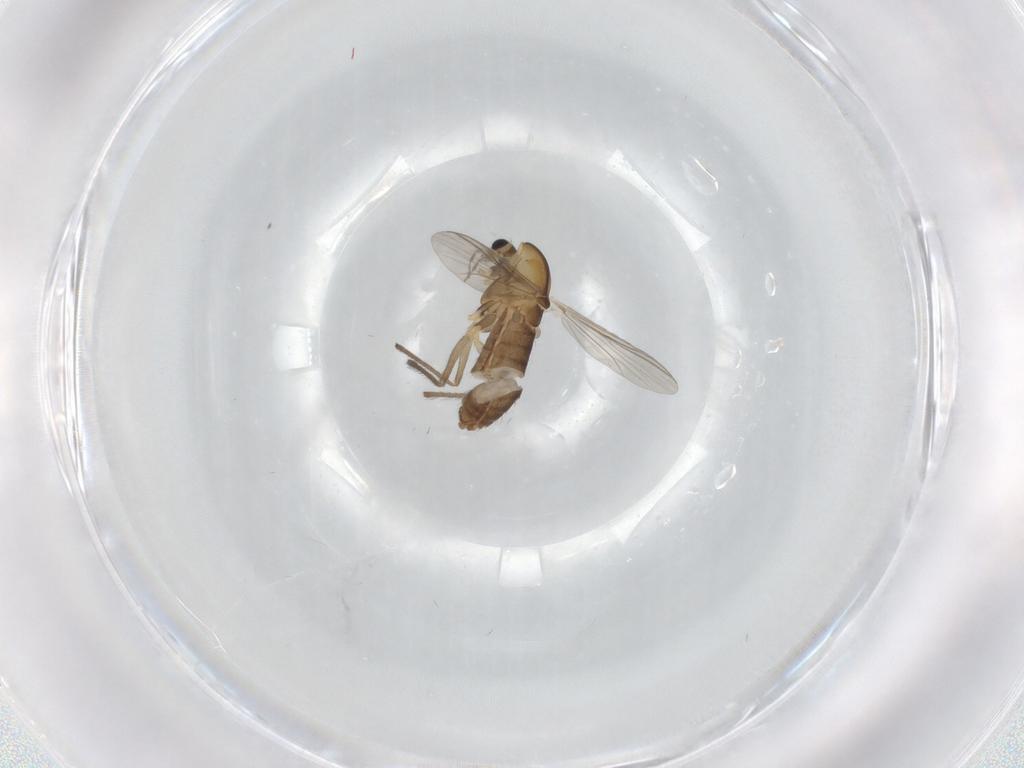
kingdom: Animalia
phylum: Arthropoda
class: Insecta
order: Diptera
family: Chironomidae
